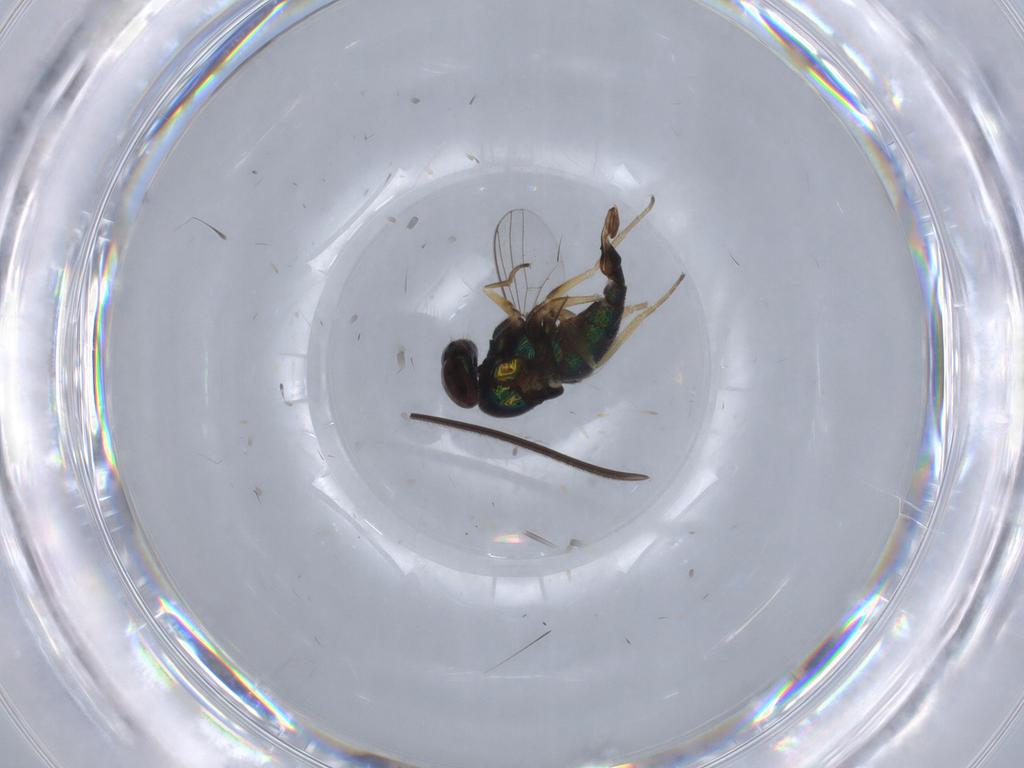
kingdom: Animalia
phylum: Arthropoda
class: Insecta
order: Diptera
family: Dolichopodidae
